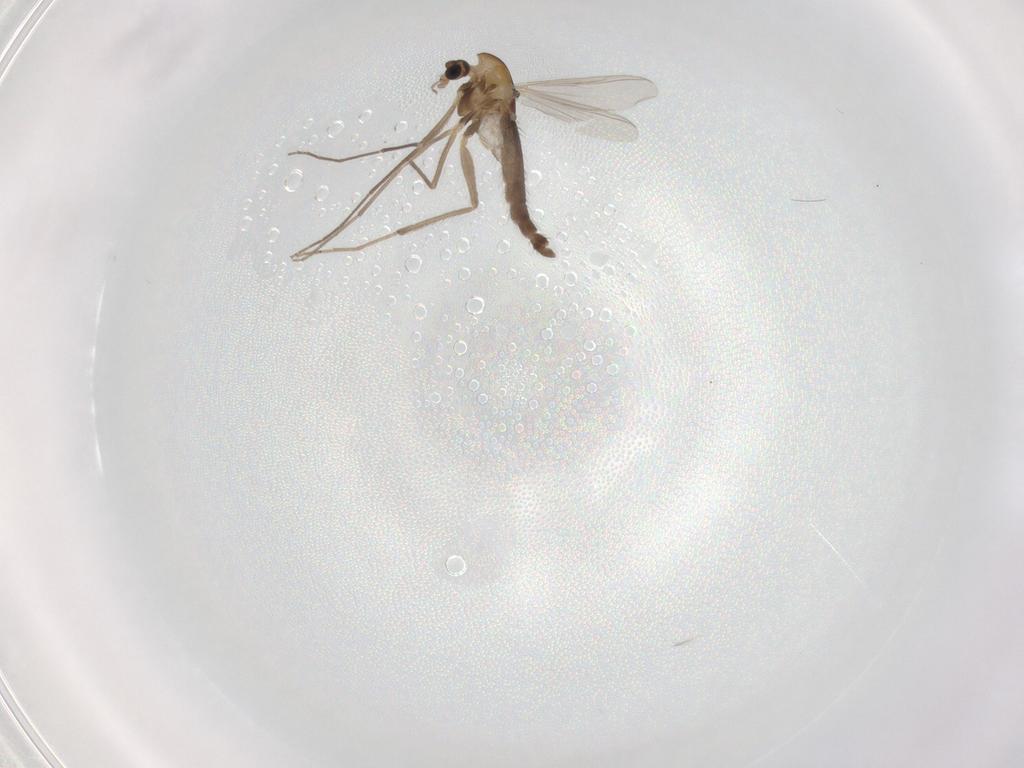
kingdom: Animalia
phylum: Arthropoda
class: Insecta
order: Diptera
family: Chironomidae
